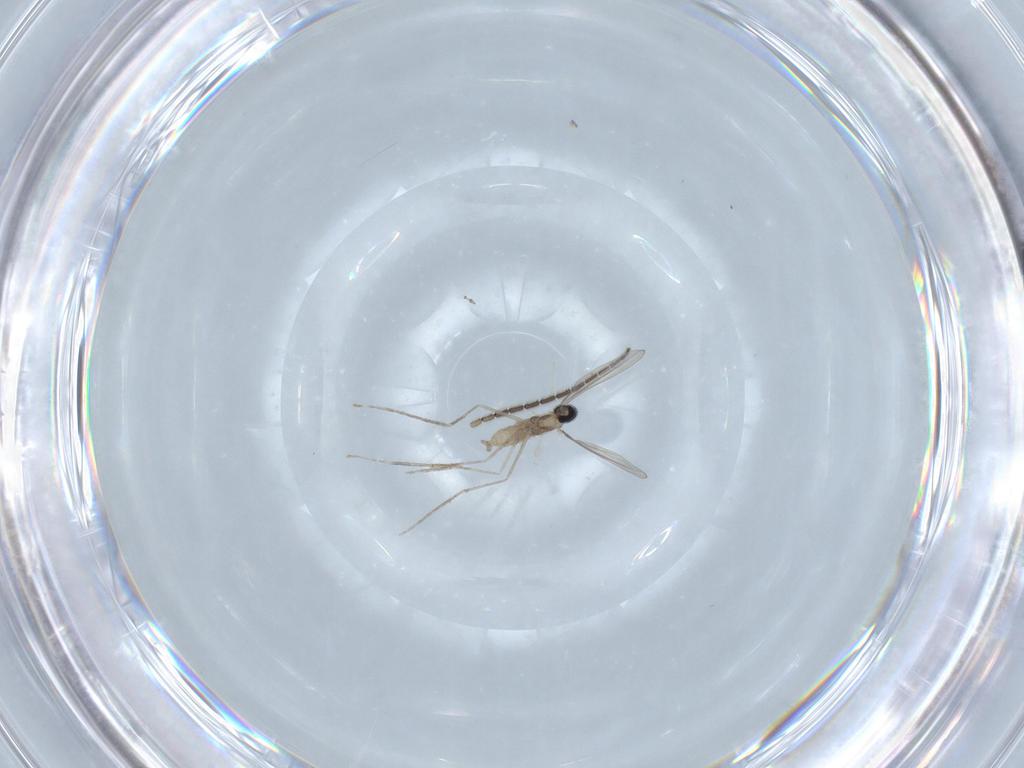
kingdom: Animalia
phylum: Arthropoda
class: Insecta
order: Diptera
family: Sciaridae
